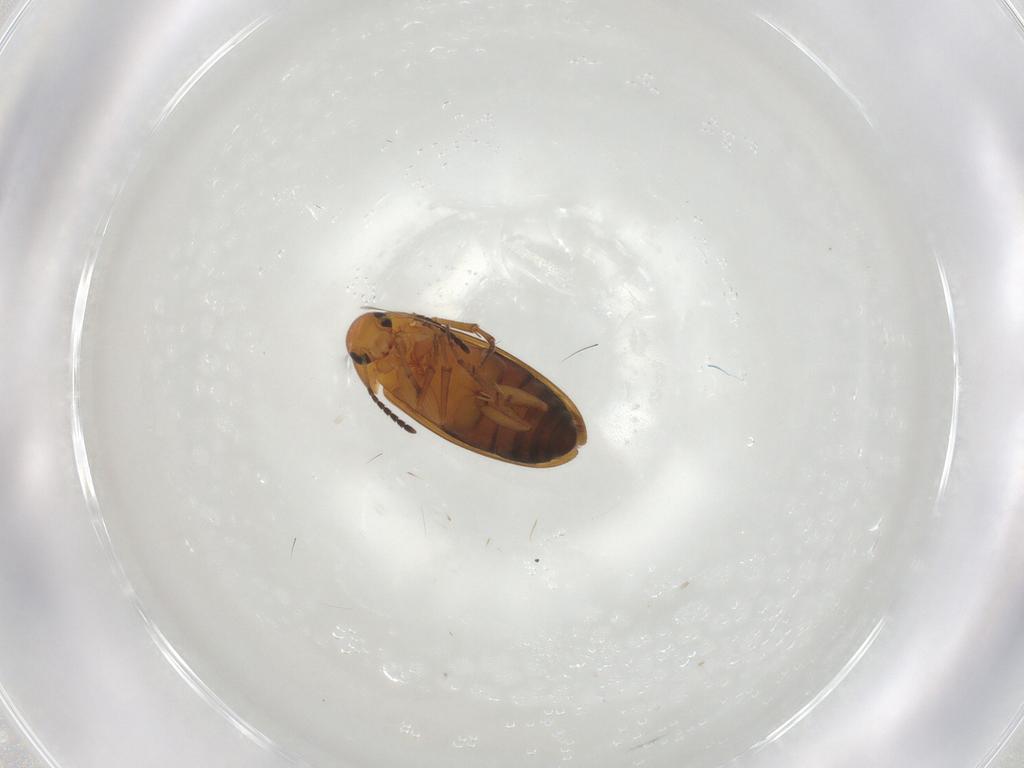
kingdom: Animalia
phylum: Arthropoda
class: Insecta
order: Coleoptera
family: Scraptiidae
